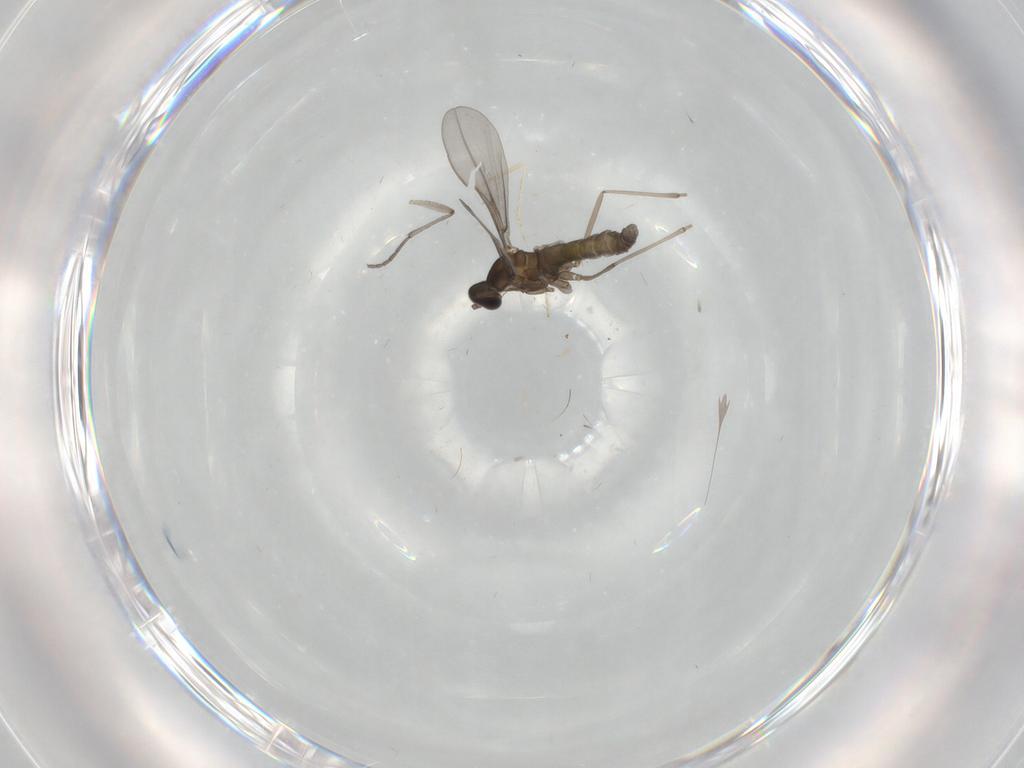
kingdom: Animalia
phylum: Arthropoda
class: Insecta
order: Diptera
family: Cecidomyiidae
